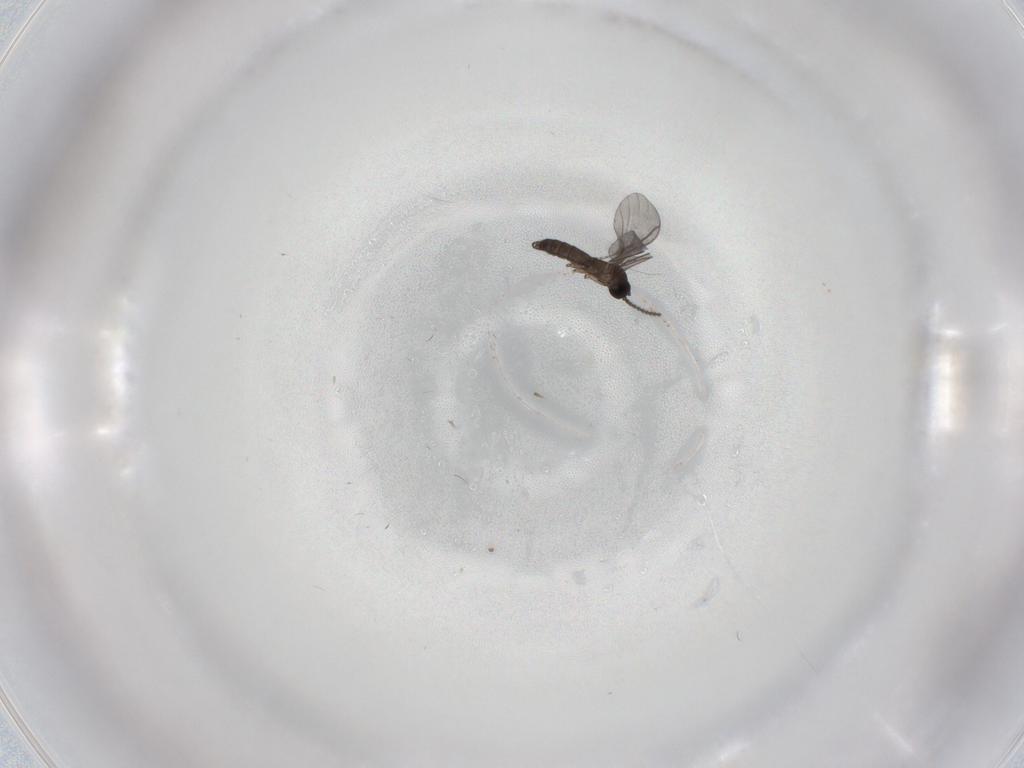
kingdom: Animalia
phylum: Arthropoda
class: Insecta
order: Diptera
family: Sciaridae
